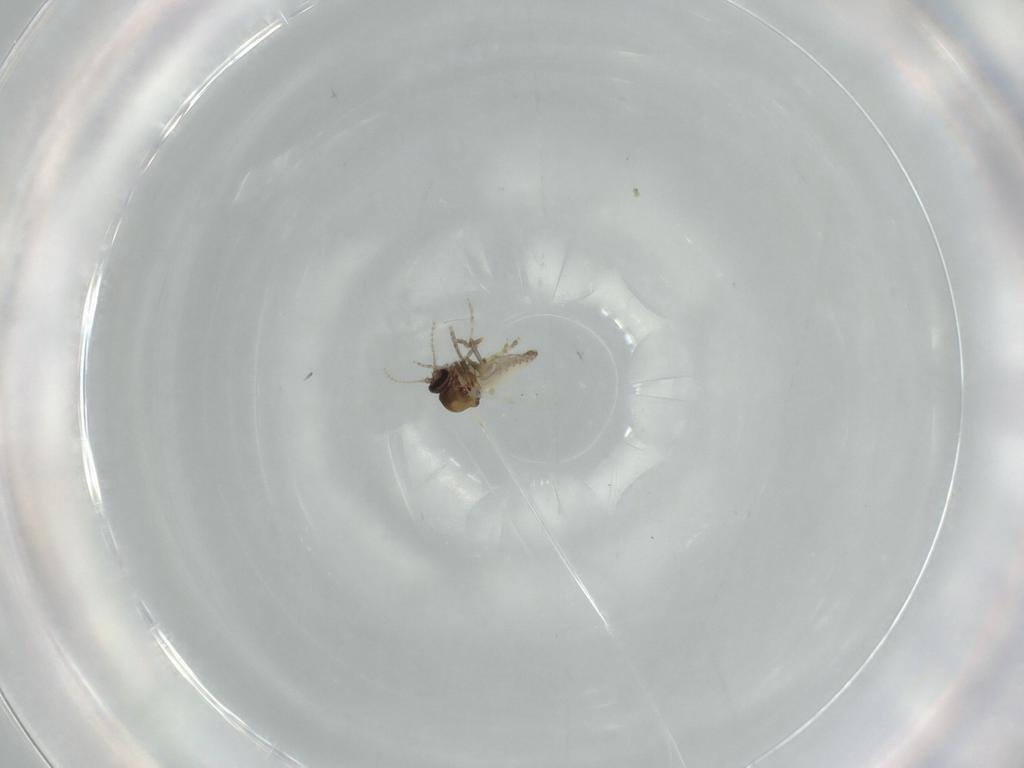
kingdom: Animalia
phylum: Arthropoda
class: Insecta
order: Diptera
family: Ceratopogonidae
